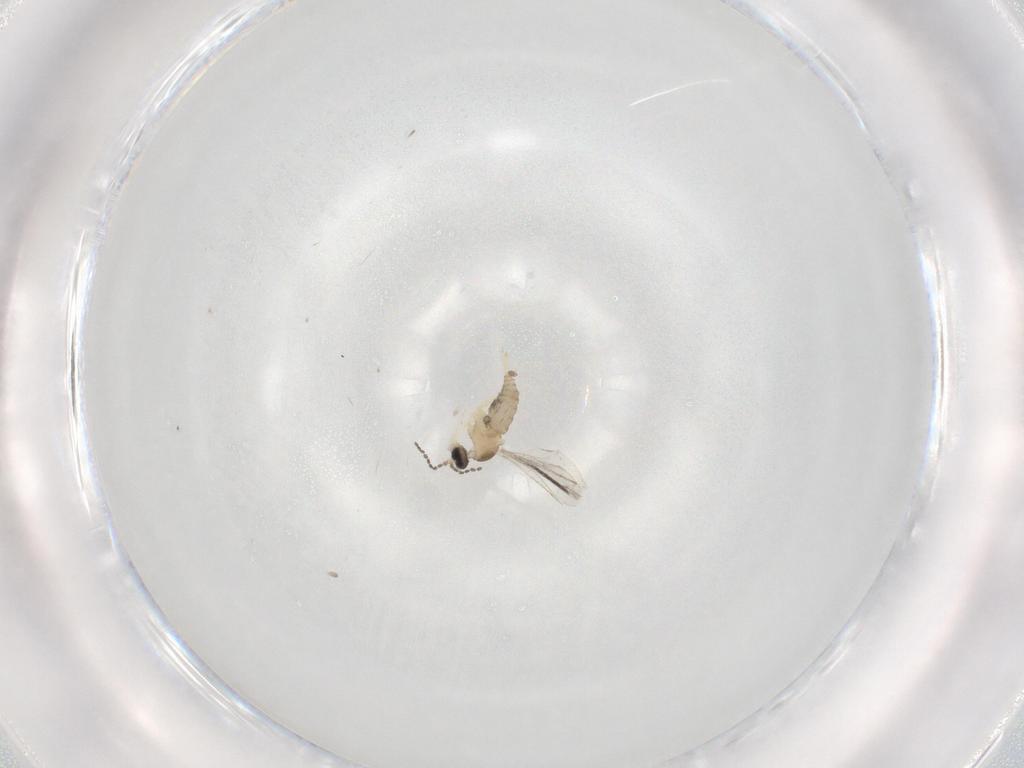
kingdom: Animalia
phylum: Arthropoda
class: Insecta
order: Diptera
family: Cecidomyiidae
